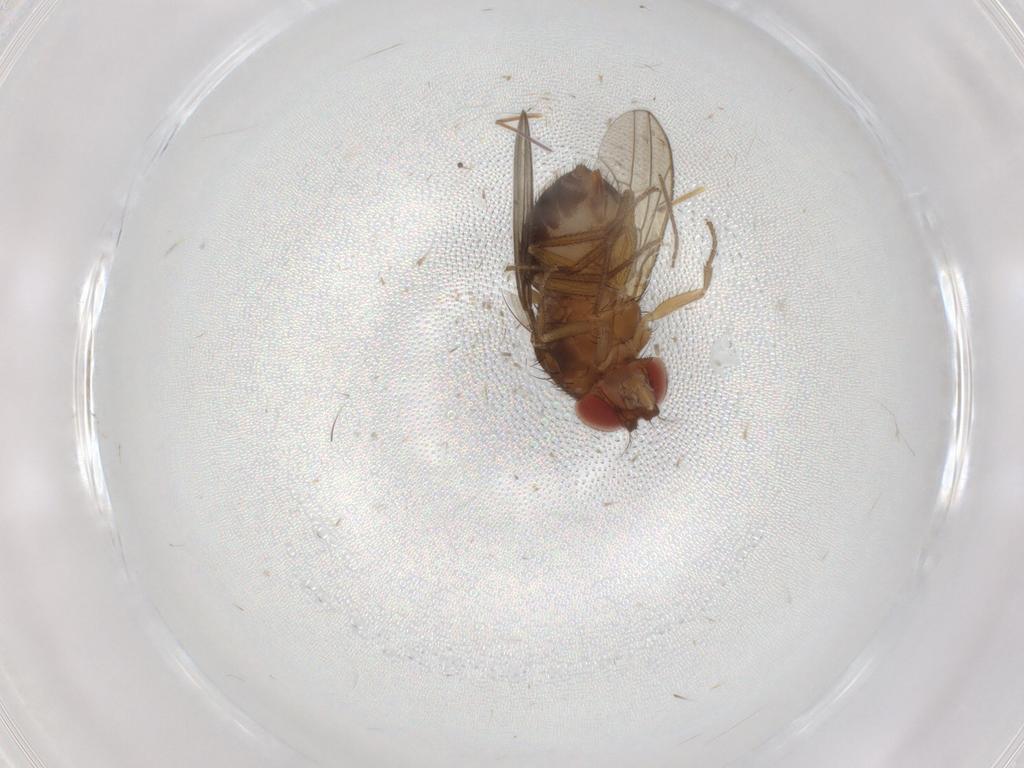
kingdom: Animalia
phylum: Arthropoda
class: Insecta
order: Diptera
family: Drosophilidae
